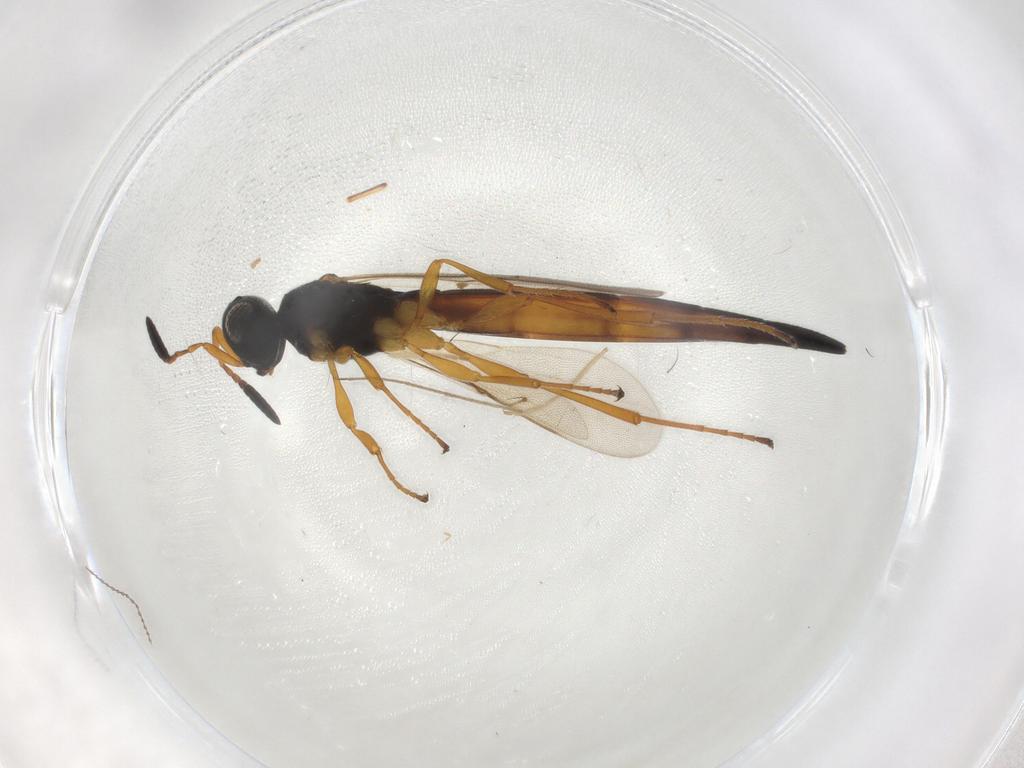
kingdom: Animalia
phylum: Arthropoda
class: Insecta
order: Hymenoptera
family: Scelionidae
